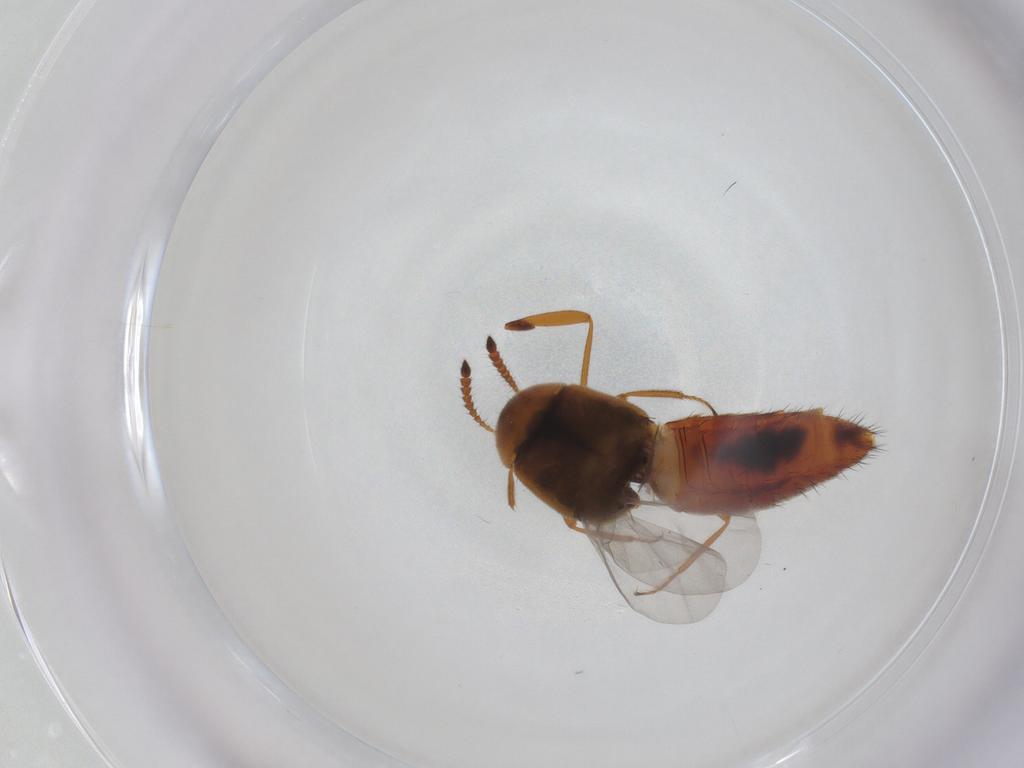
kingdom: Animalia
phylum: Arthropoda
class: Insecta
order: Coleoptera
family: Staphylinidae
